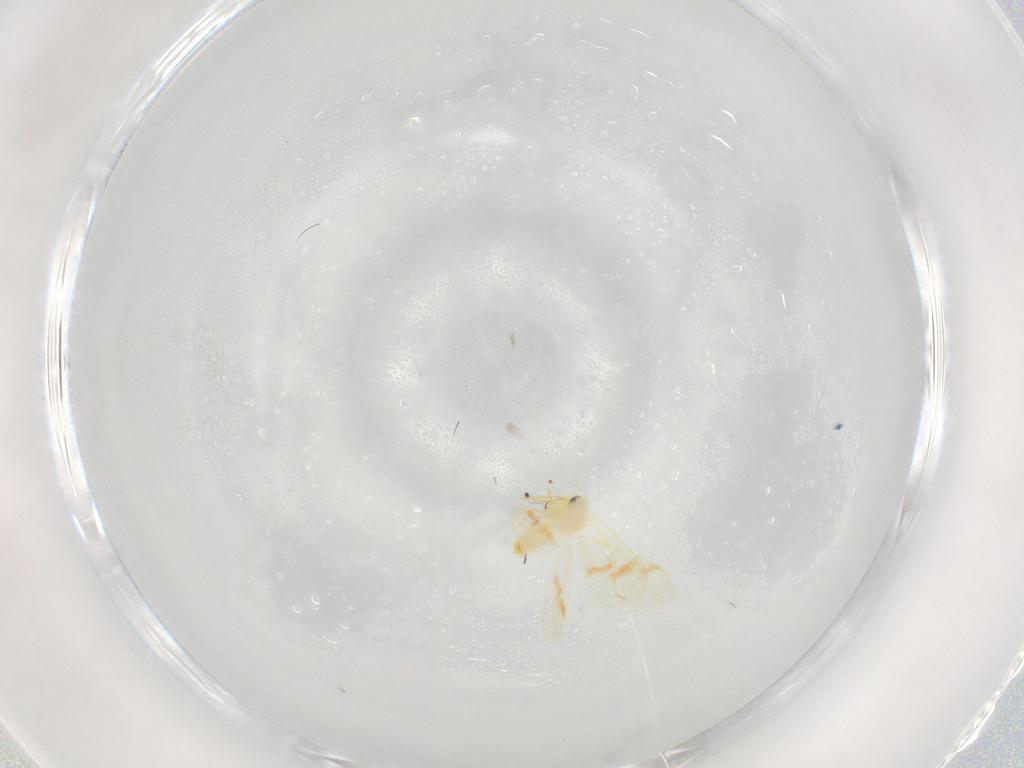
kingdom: Animalia
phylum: Arthropoda
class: Insecta
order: Hemiptera
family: Aleyrodidae
